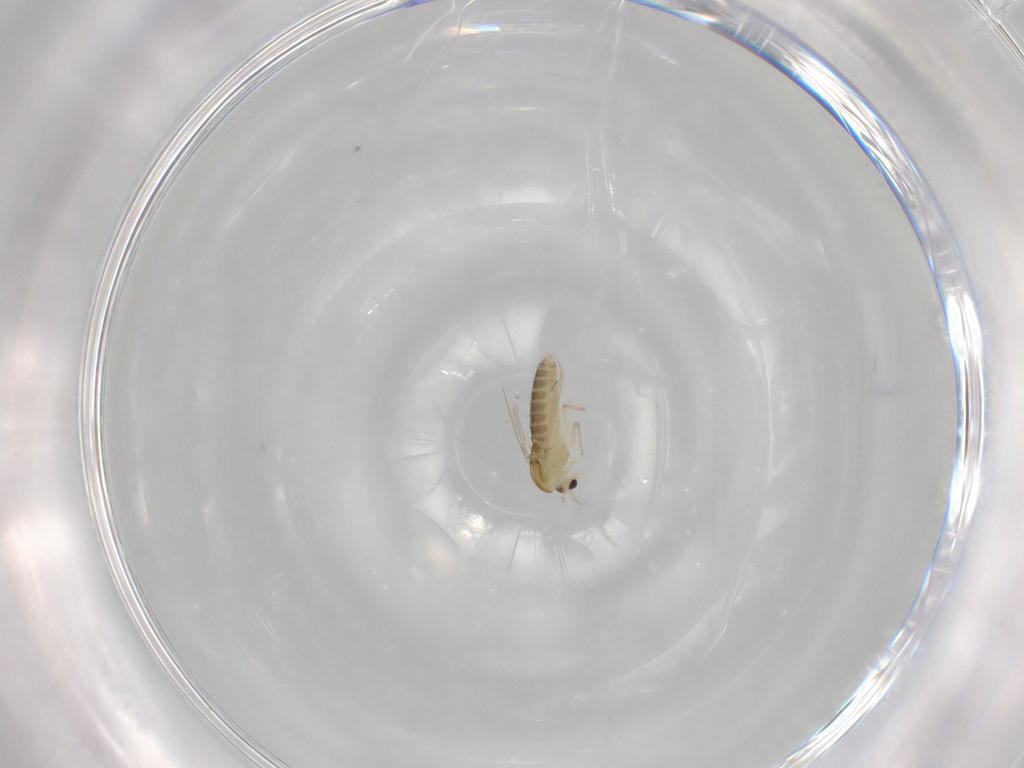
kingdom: Animalia
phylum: Arthropoda
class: Insecta
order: Diptera
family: Chironomidae
